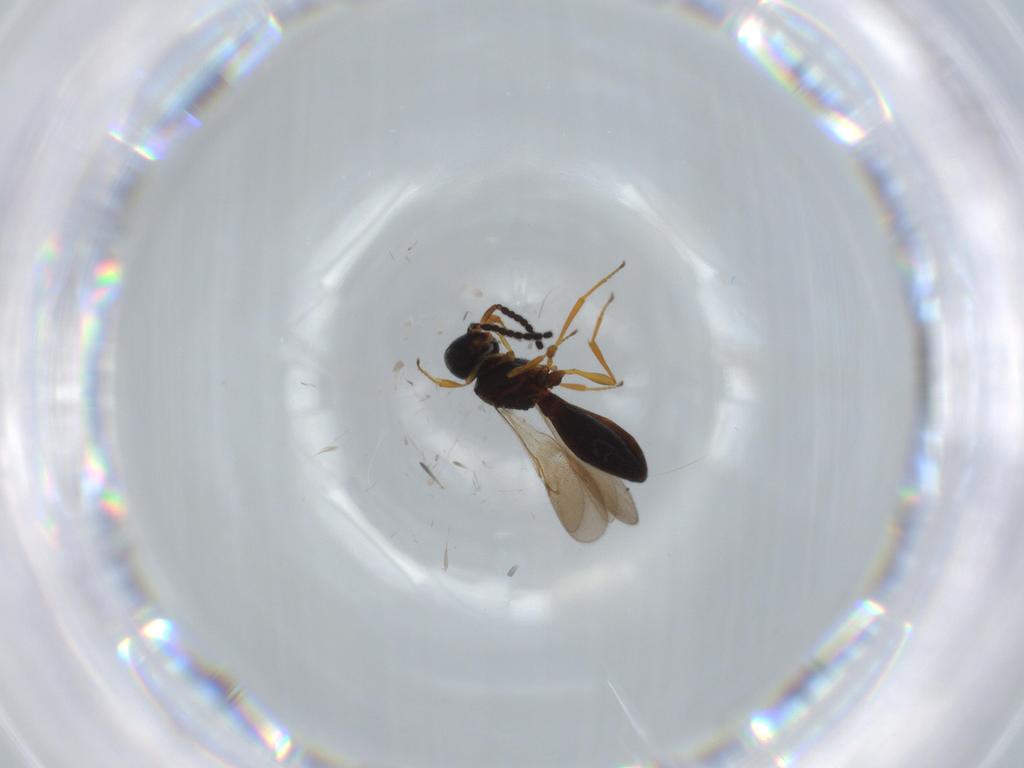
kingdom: Animalia
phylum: Arthropoda
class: Insecta
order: Hymenoptera
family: Scelionidae
